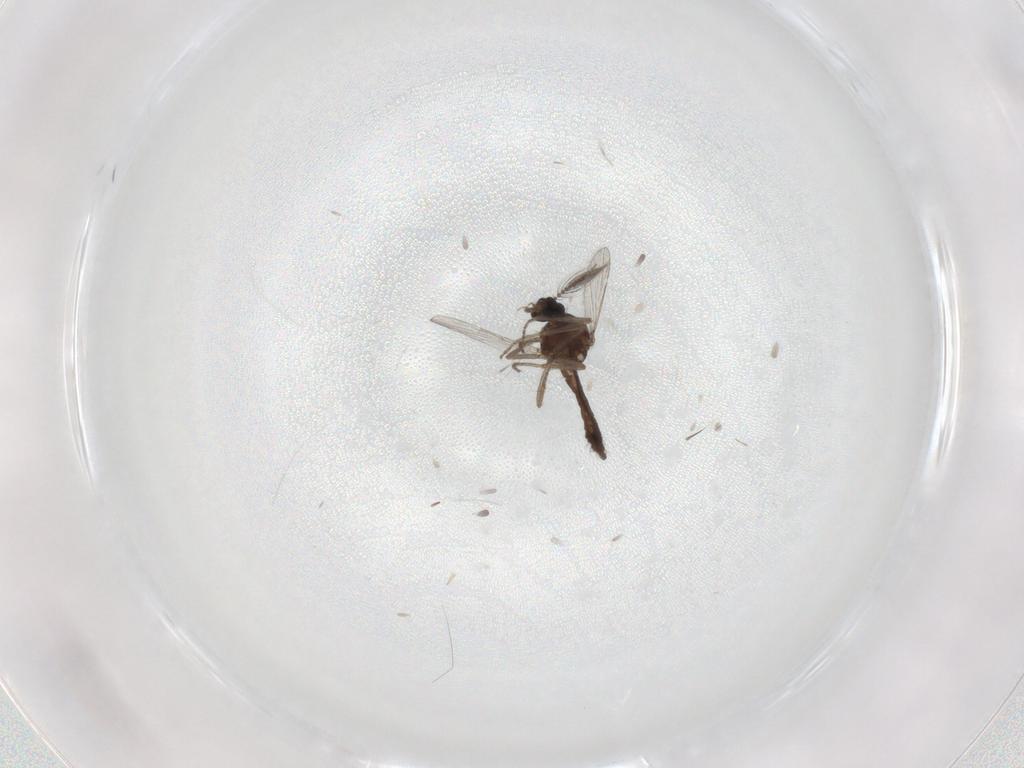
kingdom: Animalia
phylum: Arthropoda
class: Insecta
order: Diptera
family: Ceratopogonidae
